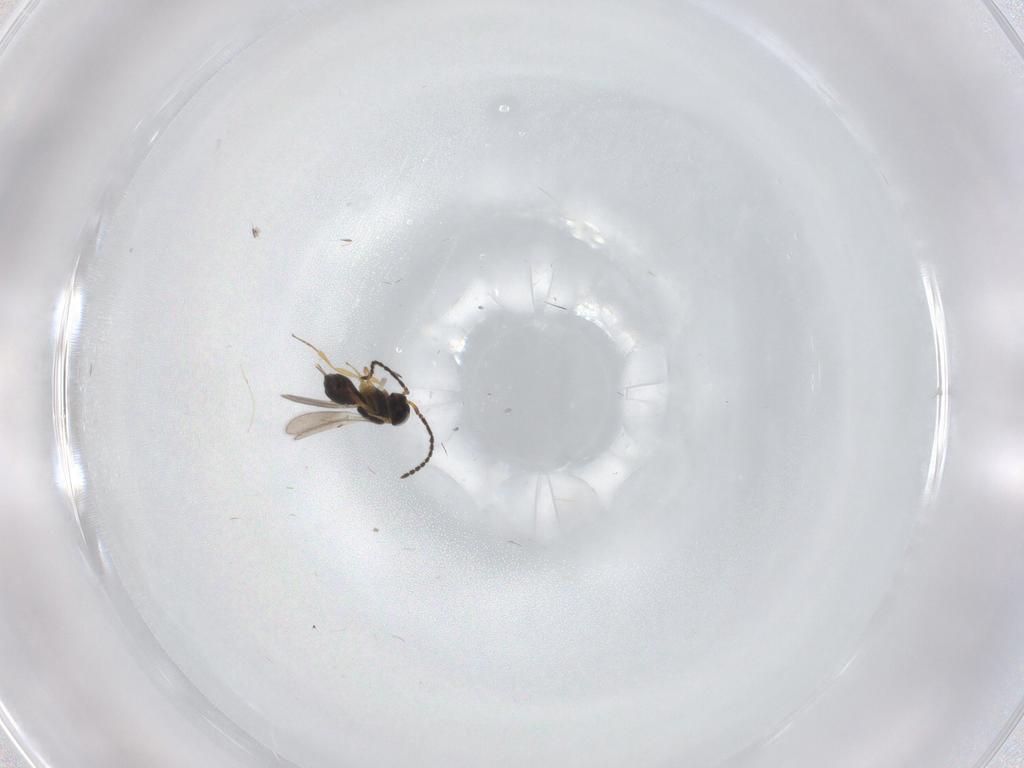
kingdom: Animalia
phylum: Arthropoda
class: Insecta
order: Hymenoptera
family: Scelionidae
